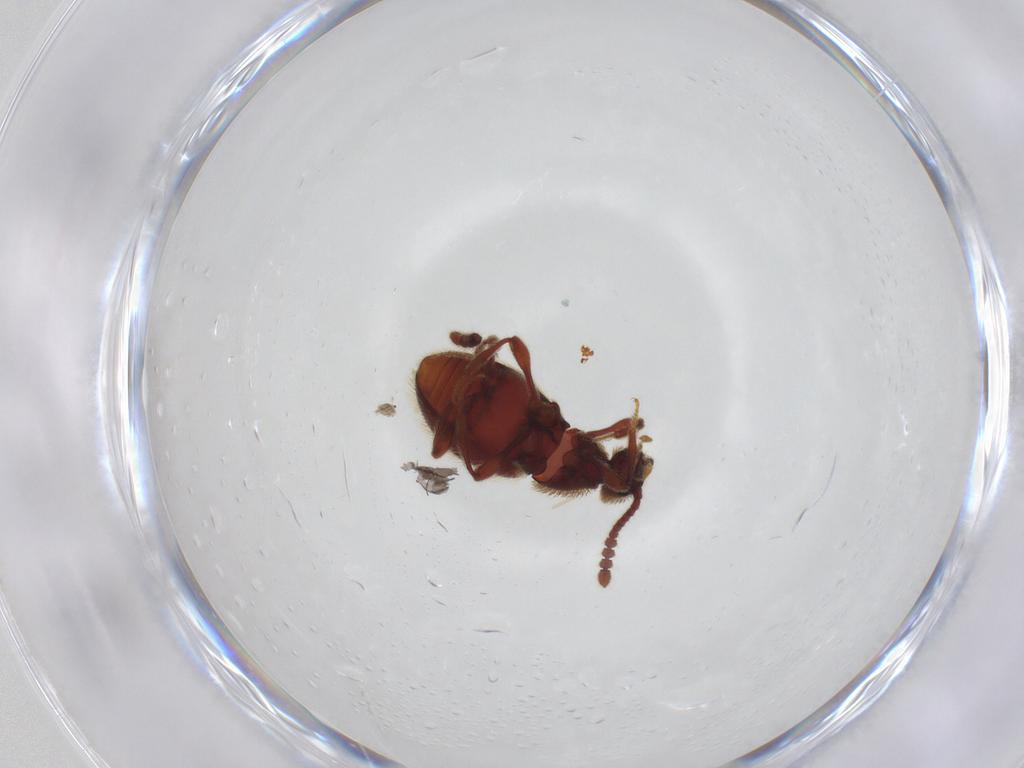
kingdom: Animalia
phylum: Arthropoda
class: Insecta
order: Coleoptera
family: Staphylinidae
